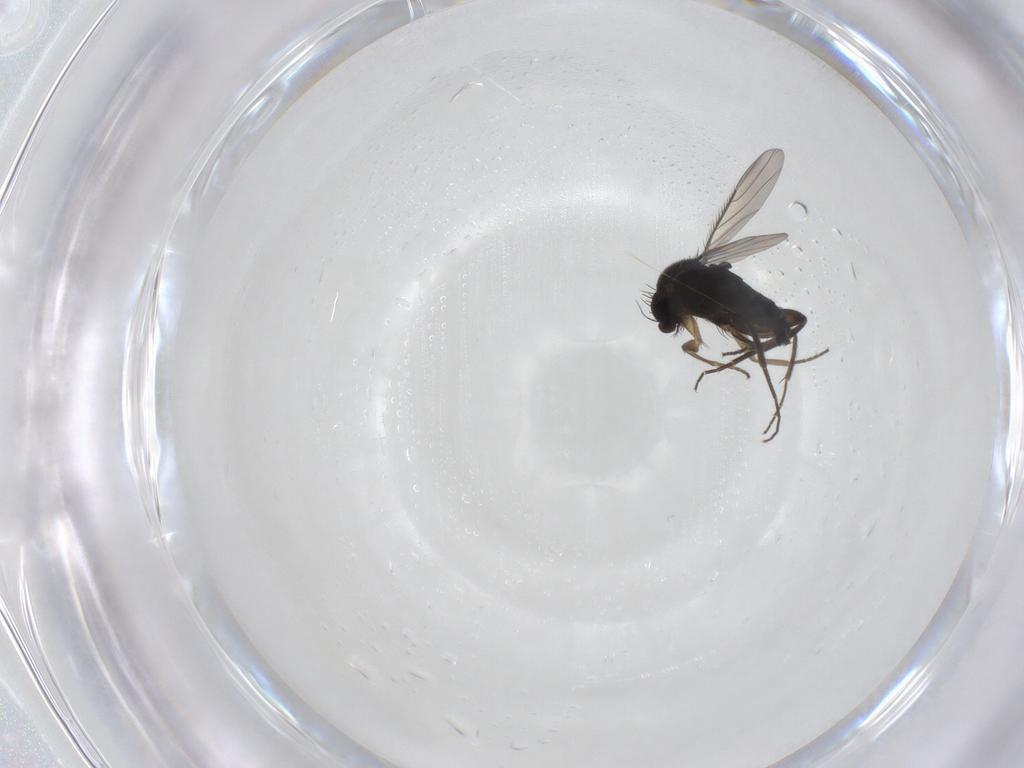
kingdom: Animalia
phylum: Arthropoda
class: Insecta
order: Diptera
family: Phoridae
